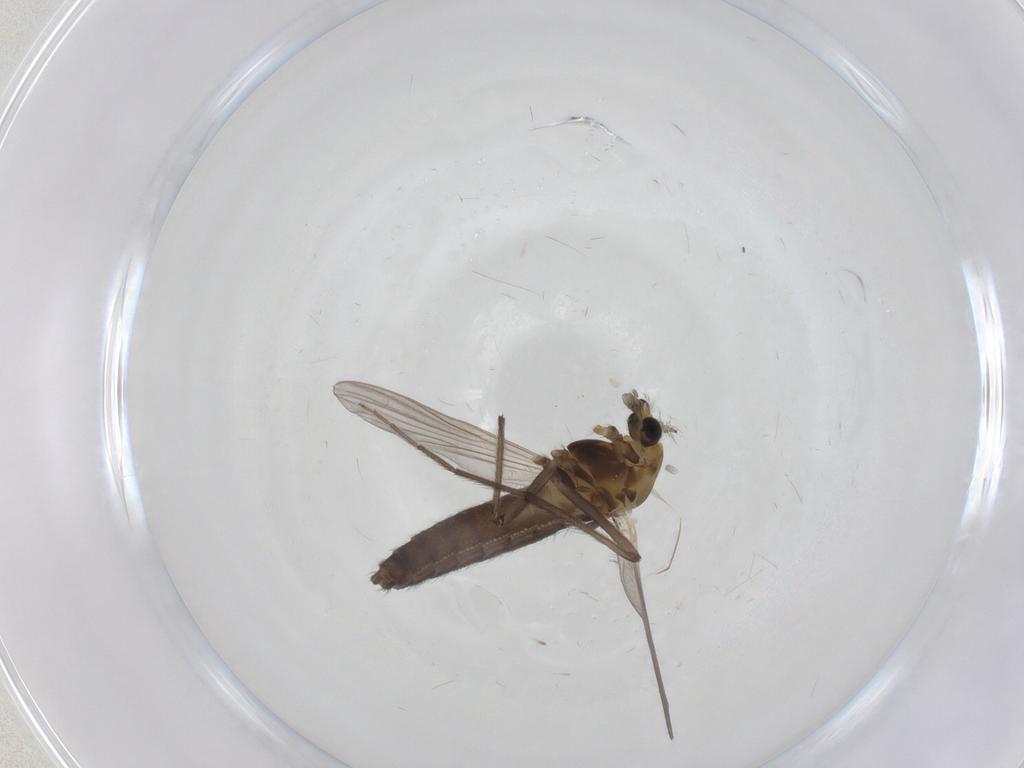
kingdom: Animalia
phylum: Arthropoda
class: Insecta
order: Diptera
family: Chironomidae
